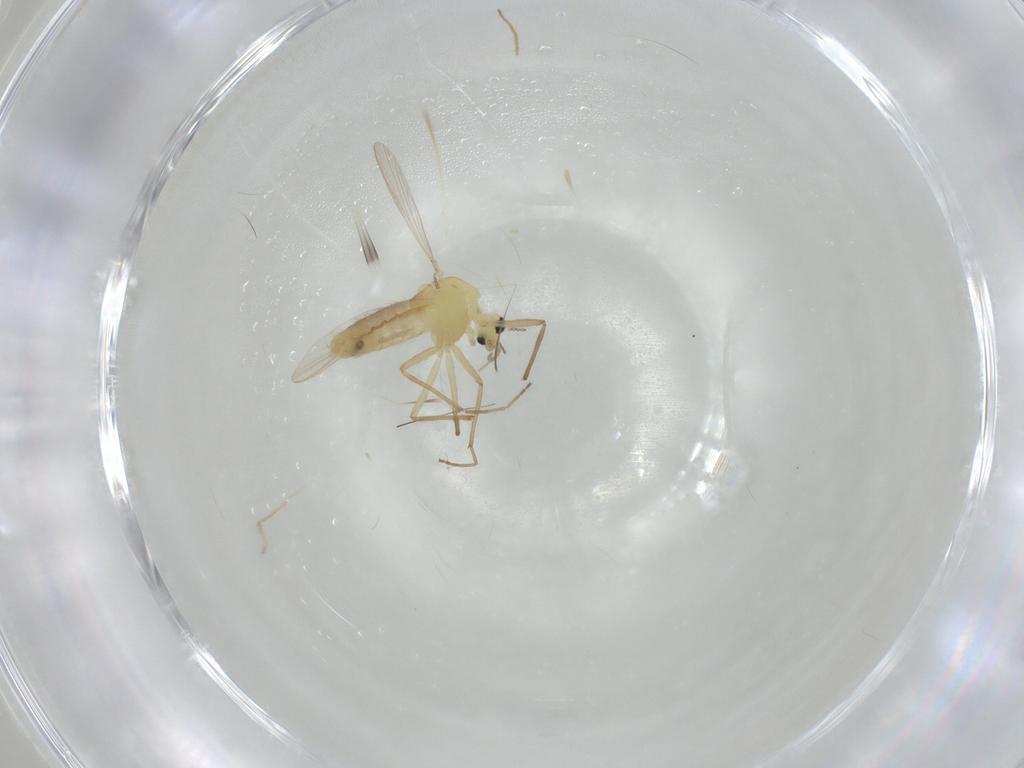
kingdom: Animalia
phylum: Arthropoda
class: Insecta
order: Diptera
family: Chironomidae
